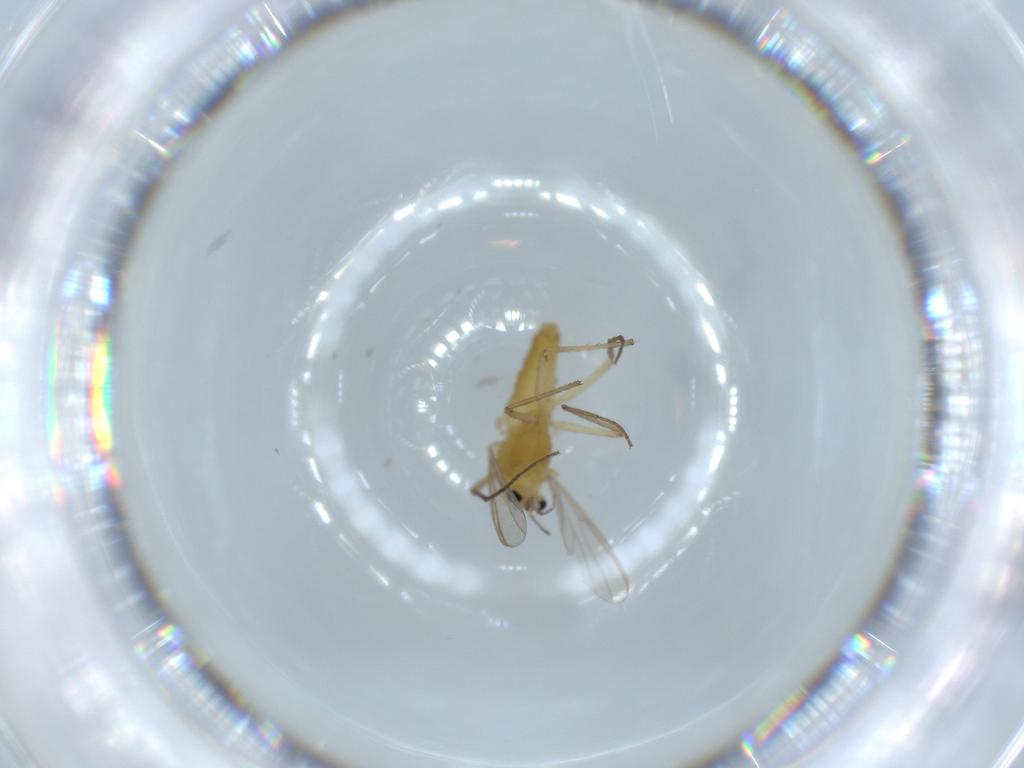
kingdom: Animalia
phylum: Arthropoda
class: Insecta
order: Diptera
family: Chironomidae
